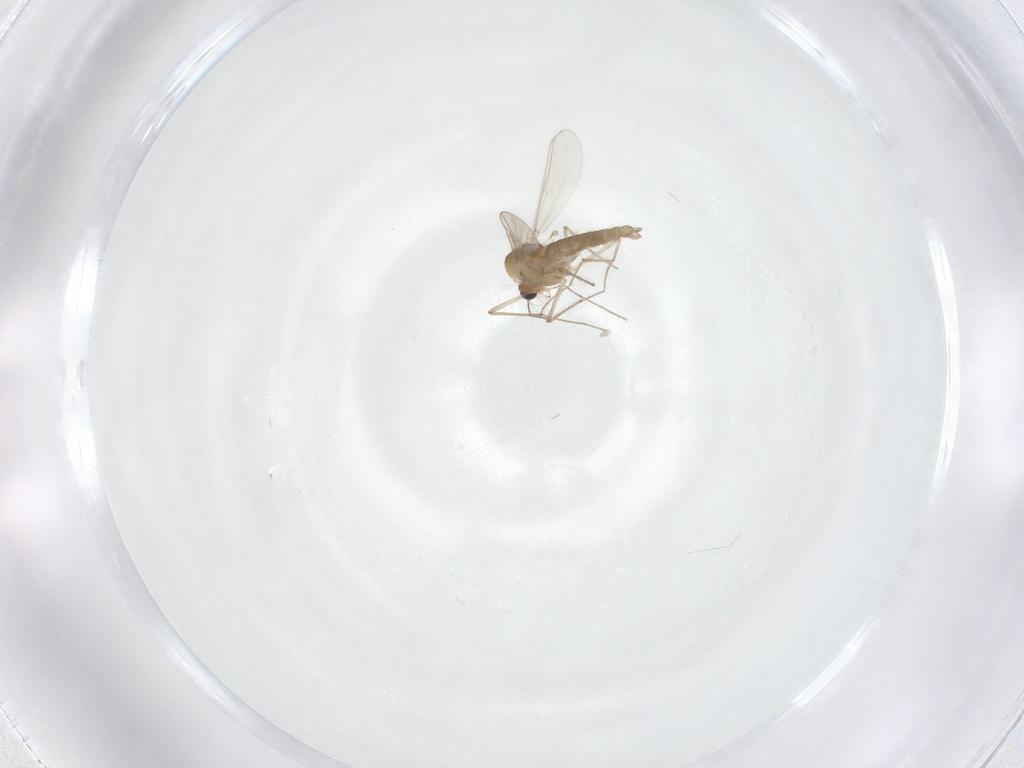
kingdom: Animalia
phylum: Arthropoda
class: Insecta
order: Diptera
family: Chironomidae
